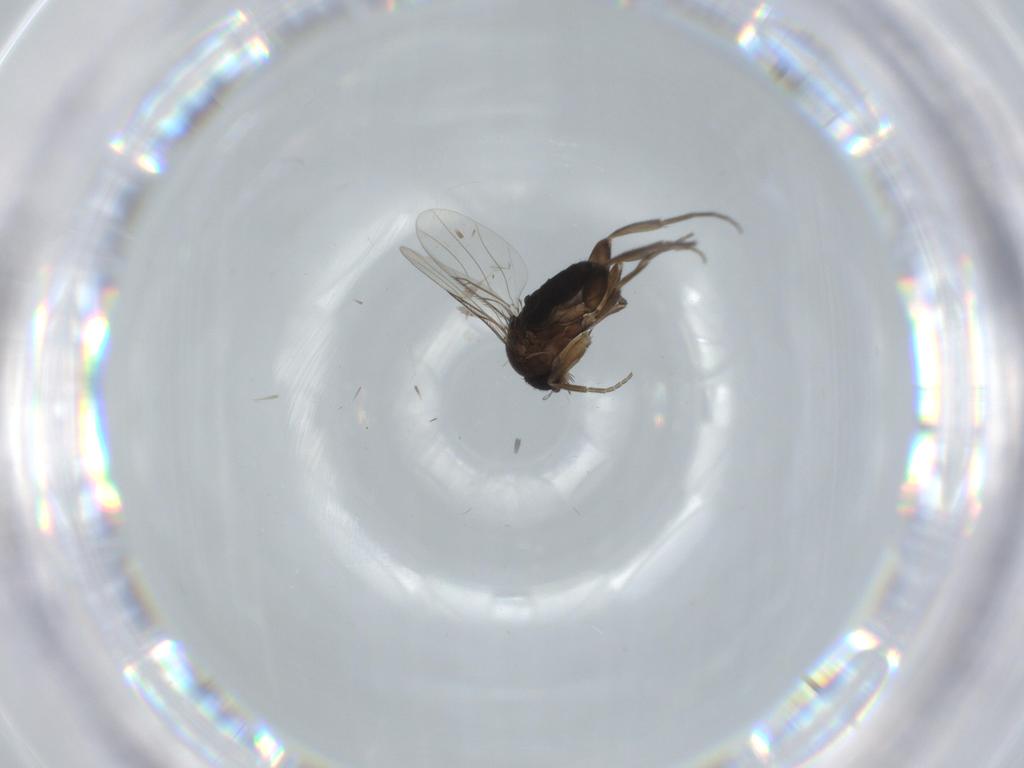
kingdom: Animalia
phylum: Arthropoda
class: Insecta
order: Diptera
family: Phoridae
